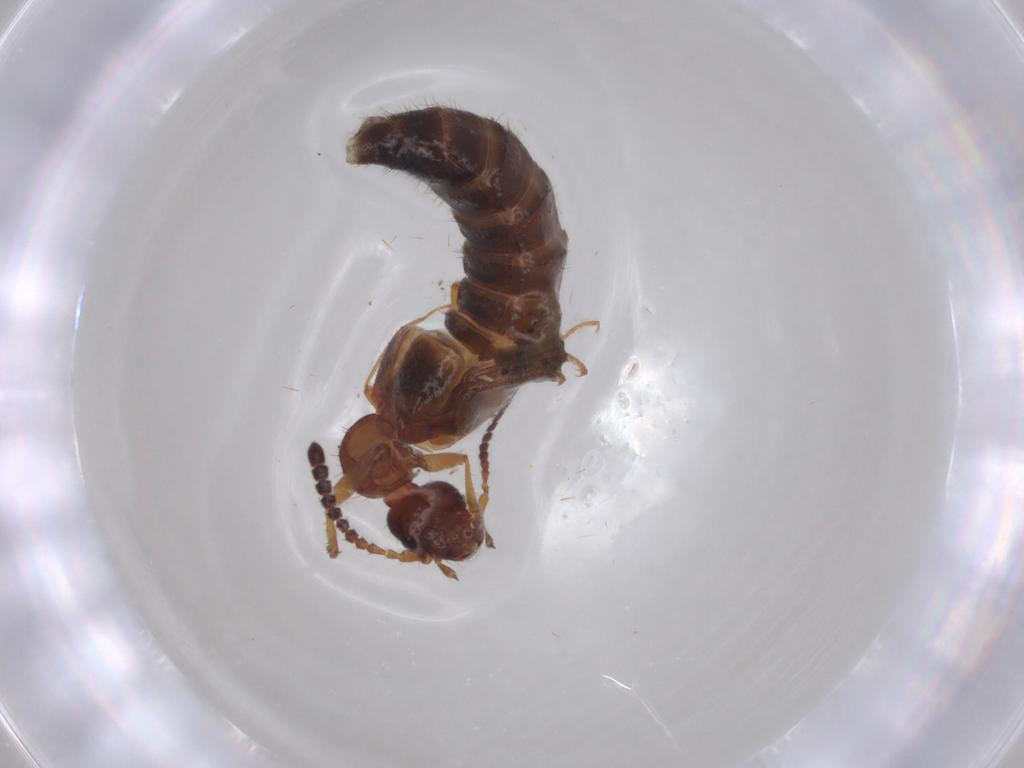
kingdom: Animalia
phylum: Arthropoda
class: Insecta
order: Coleoptera
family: Staphylinidae
